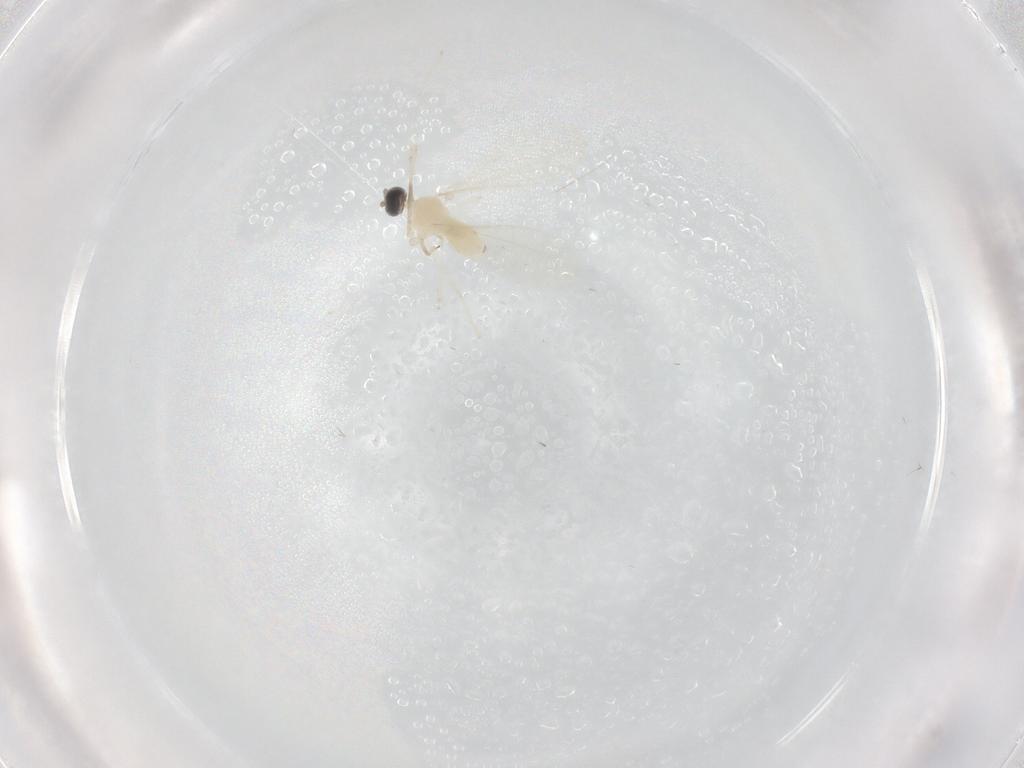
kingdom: Animalia
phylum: Arthropoda
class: Insecta
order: Diptera
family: Cecidomyiidae
